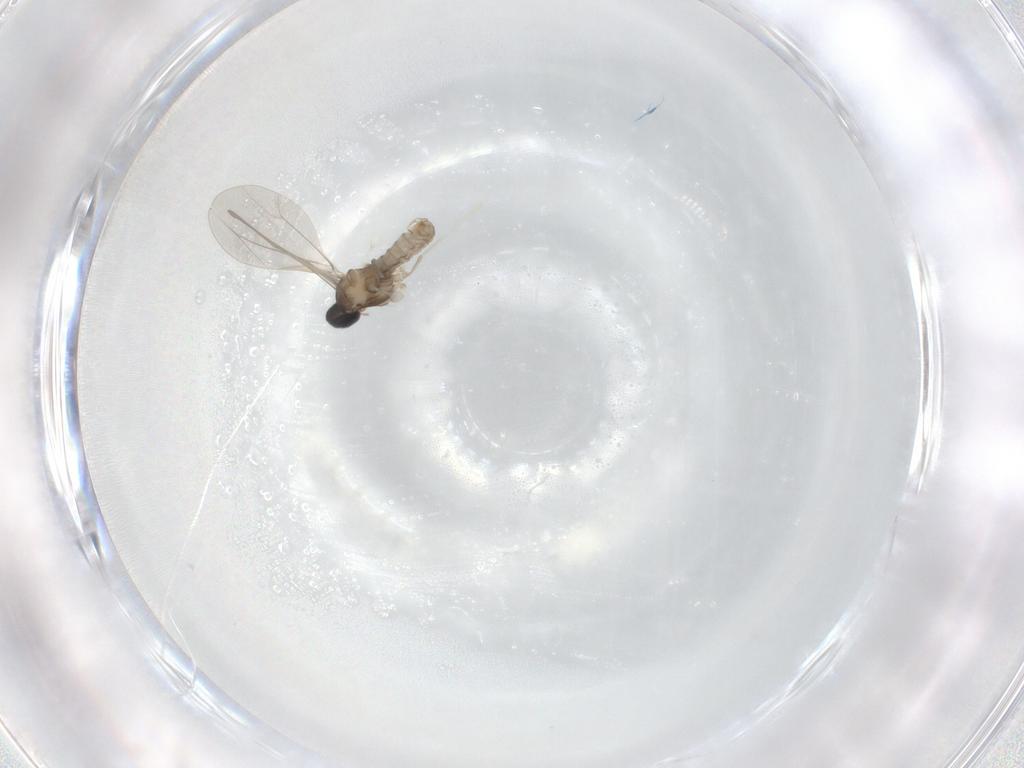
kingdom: Animalia
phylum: Arthropoda
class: Insecta
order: Diptera
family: Cecidomyiidae
